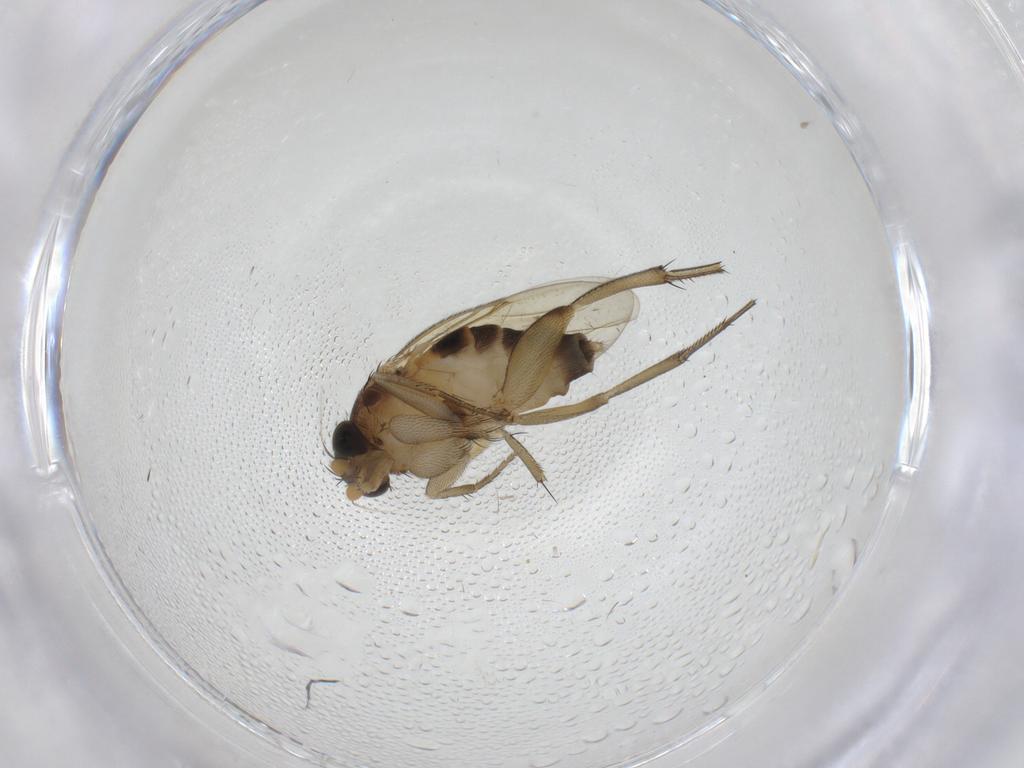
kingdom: Animalia
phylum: Arthropoda
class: Insecta
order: Diptera
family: Phoridae
